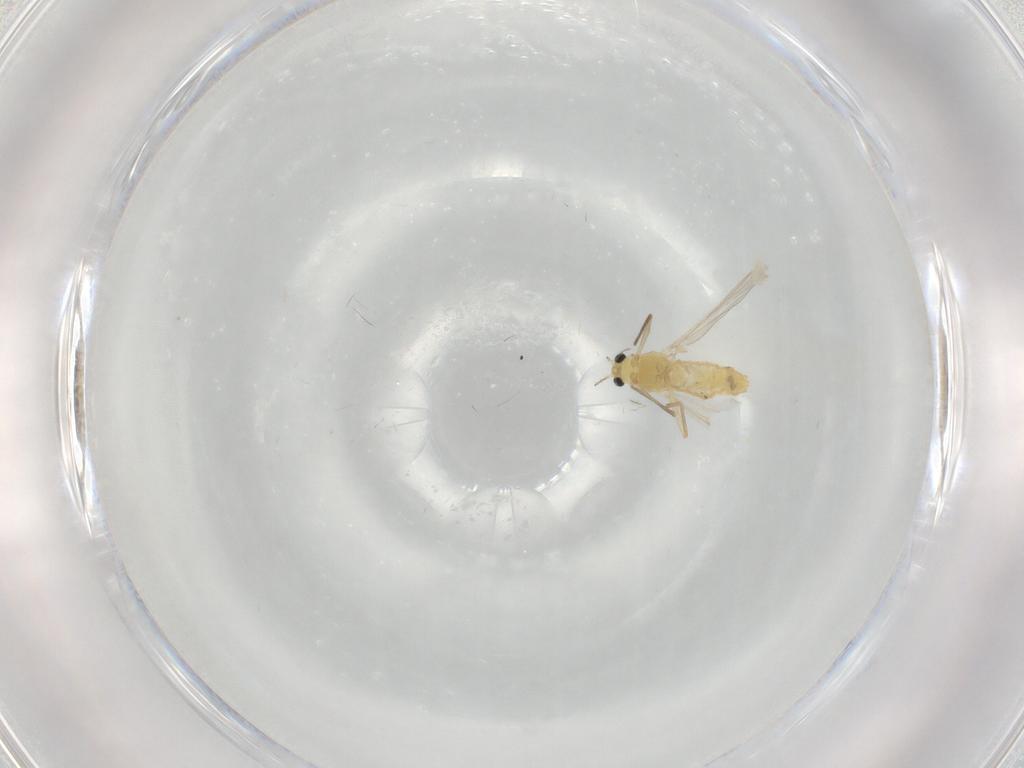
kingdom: Animalia
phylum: Arthropoda
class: Insecta
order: Diptera
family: Chironomidae
